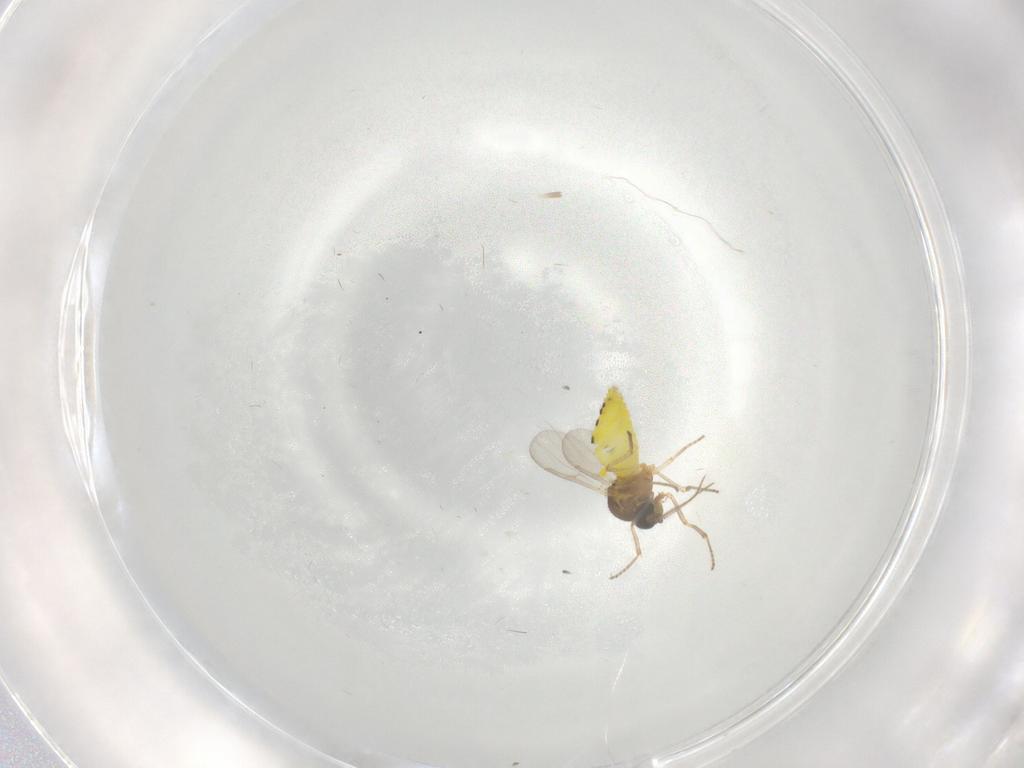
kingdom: Animalia
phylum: Arthropoda
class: Insecta
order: Diptera
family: Ceratopogonidae
